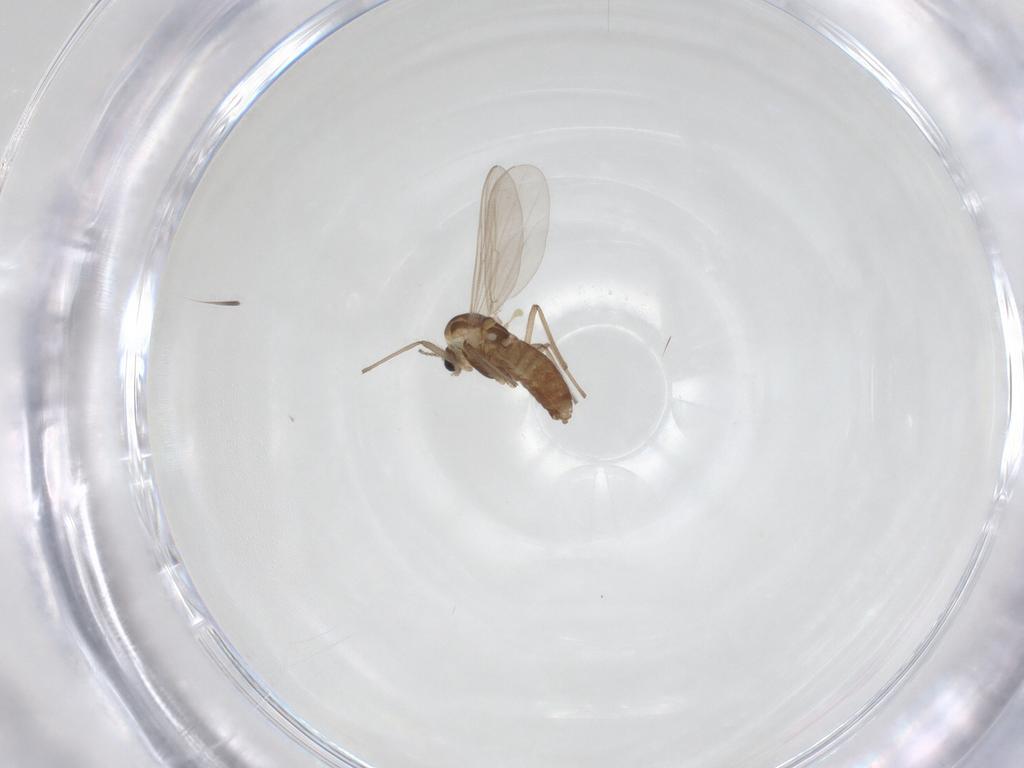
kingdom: Animalia
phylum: Arthropoda
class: Insecta
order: Diptera
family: Chironomidae
